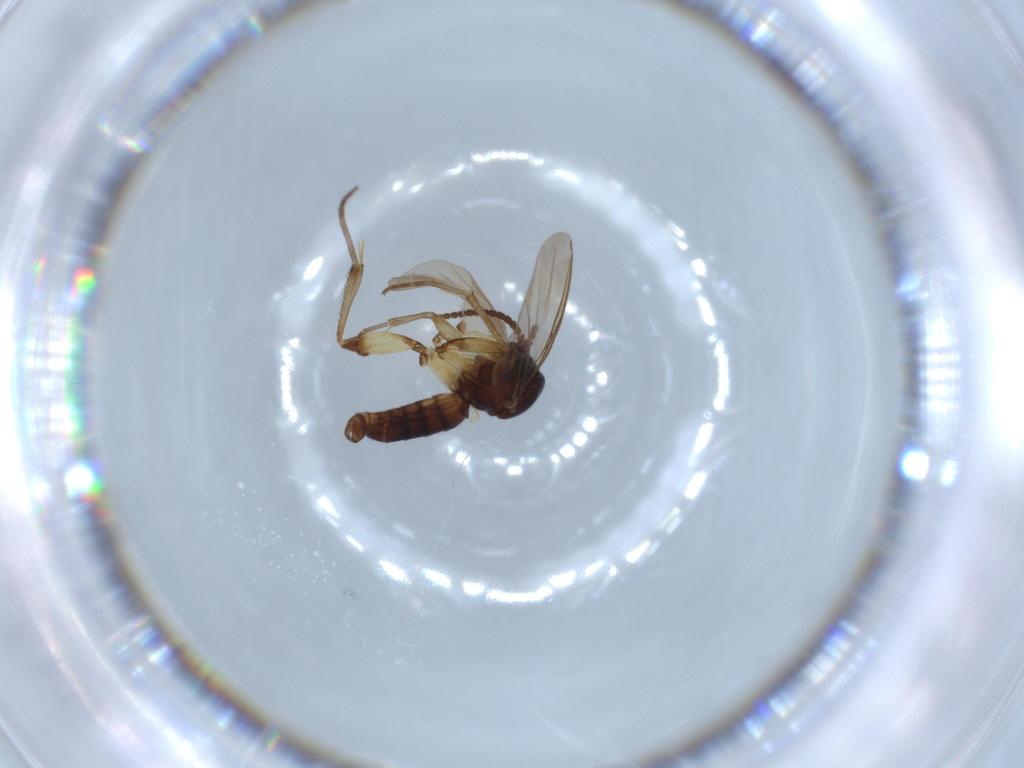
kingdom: Animalia
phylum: Arthropoda
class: Insecta
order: Diptera
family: Mycetophilidae
